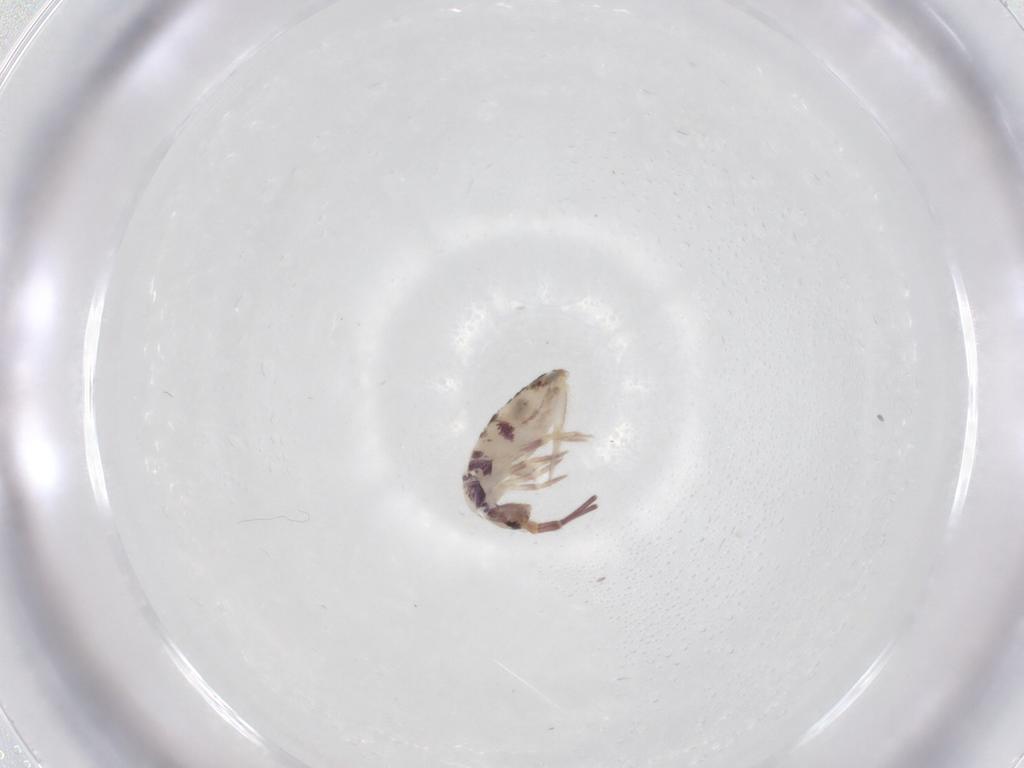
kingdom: Animalia
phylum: Arthropoda
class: Collembola
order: Entomobryomorpha
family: Entomobryidae
